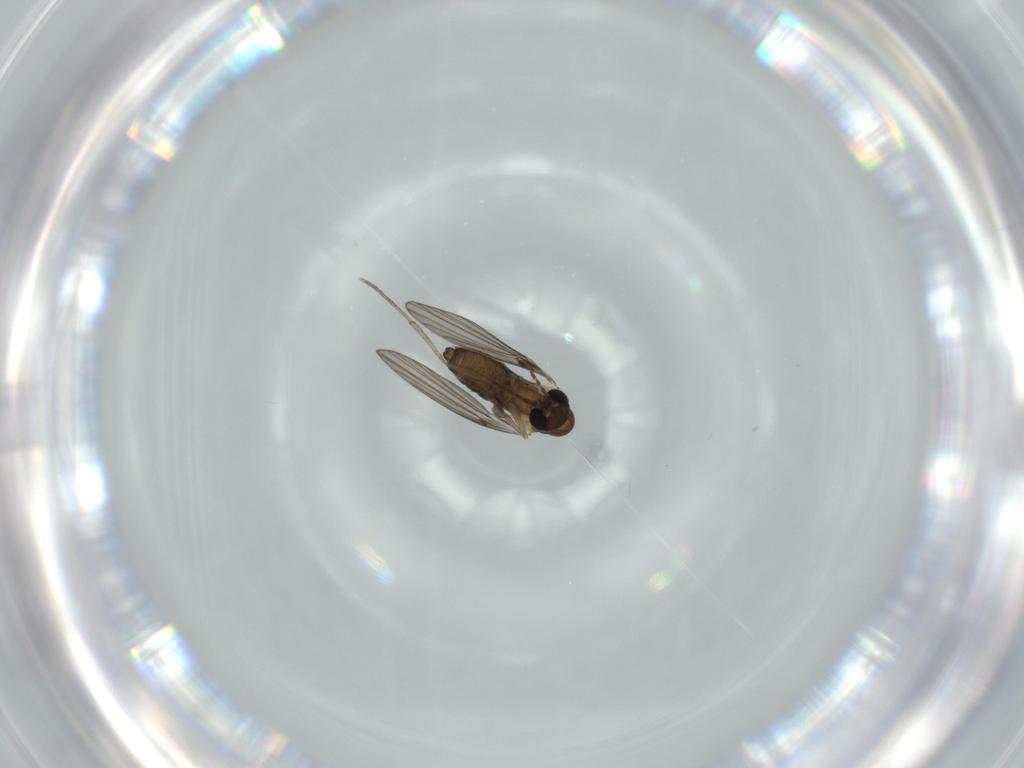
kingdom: Animalia
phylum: Arthropoda
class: Insecta
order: Diptera
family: Psychodidae
